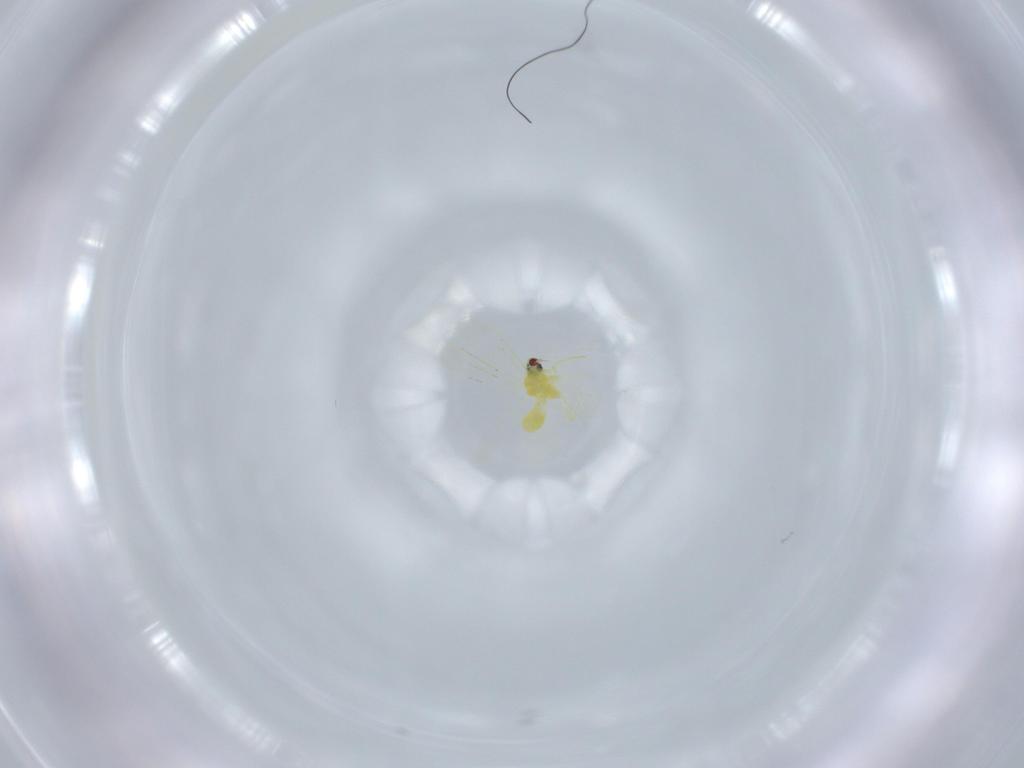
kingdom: Animalia
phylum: Arthropoda
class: Insecta
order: Hemiptera
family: Aleyrodidae
